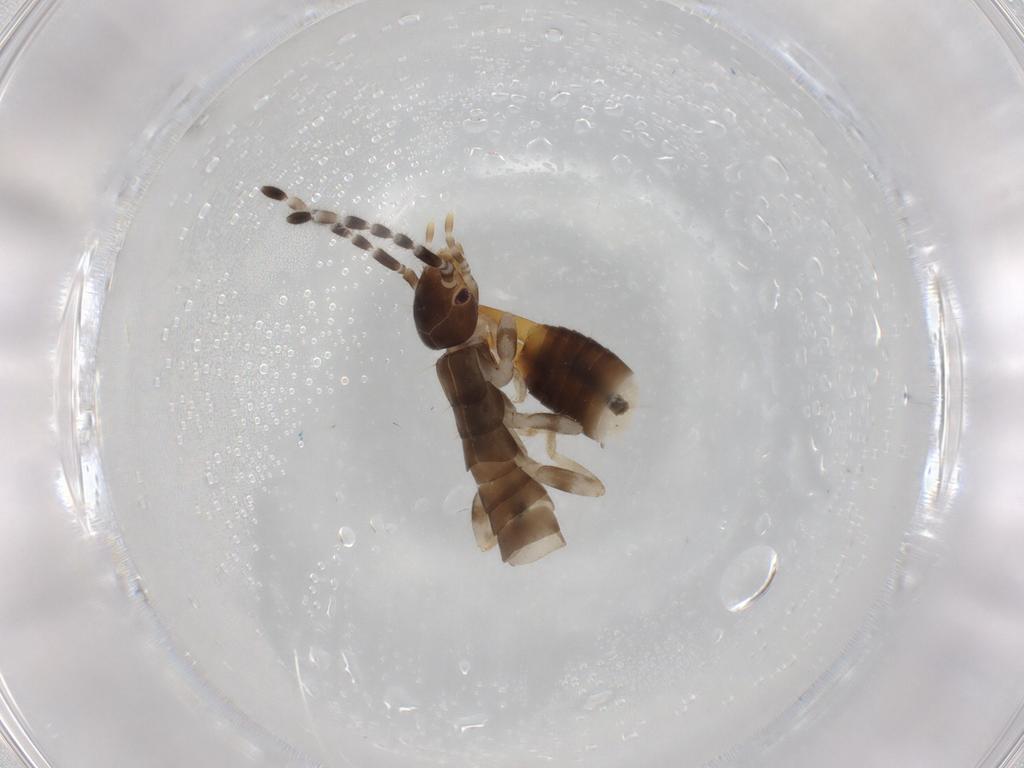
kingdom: Animalia
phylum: Arthropoda
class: Insecta
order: Dermaptera
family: Anisolabididae
